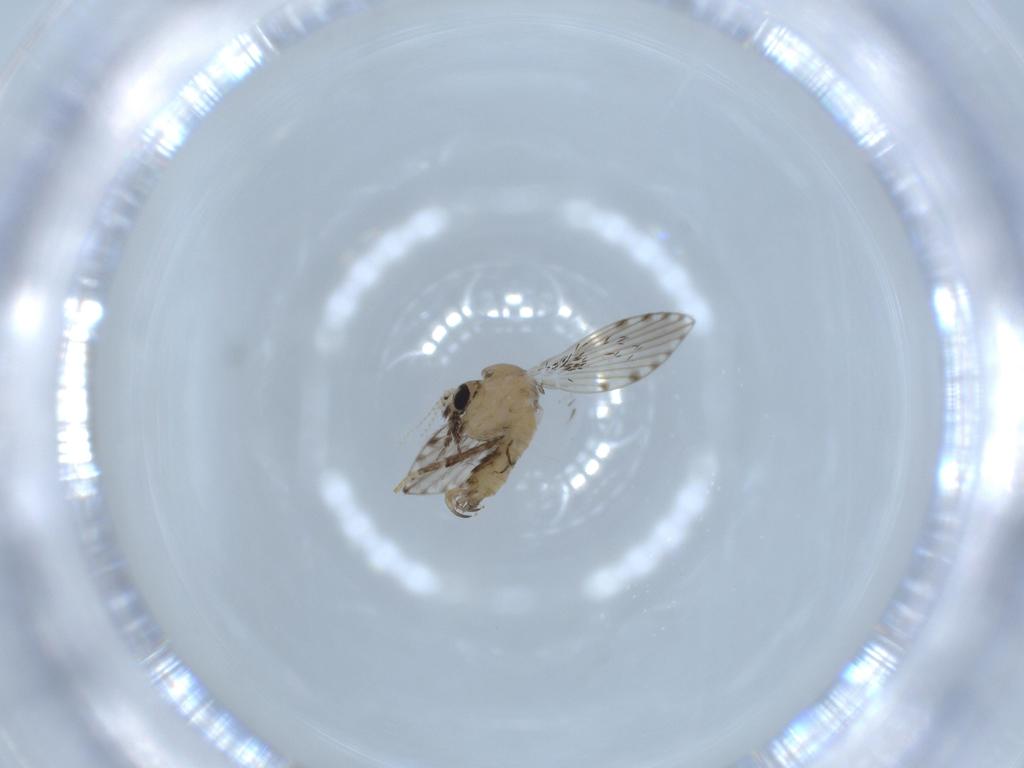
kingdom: Animalia
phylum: Arthropoda
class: Insecta
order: Diptera
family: Psychodidae
